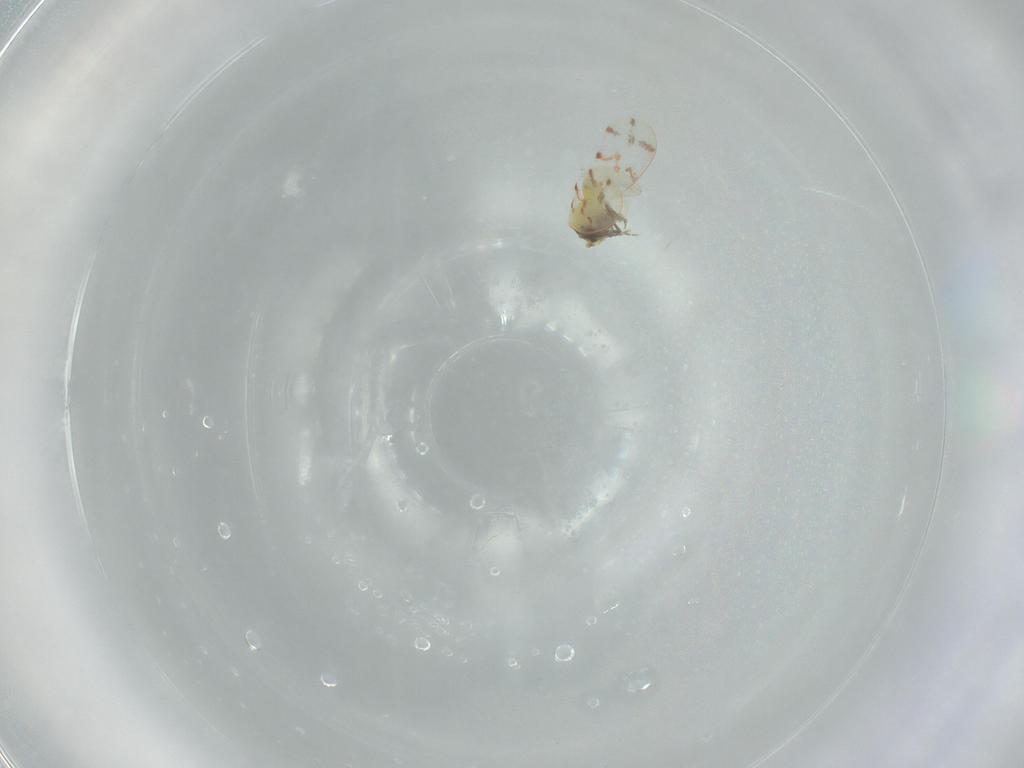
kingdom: Animalia
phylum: Arthropoda
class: Insecta
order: Hemiptera
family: Aleyrodidae
